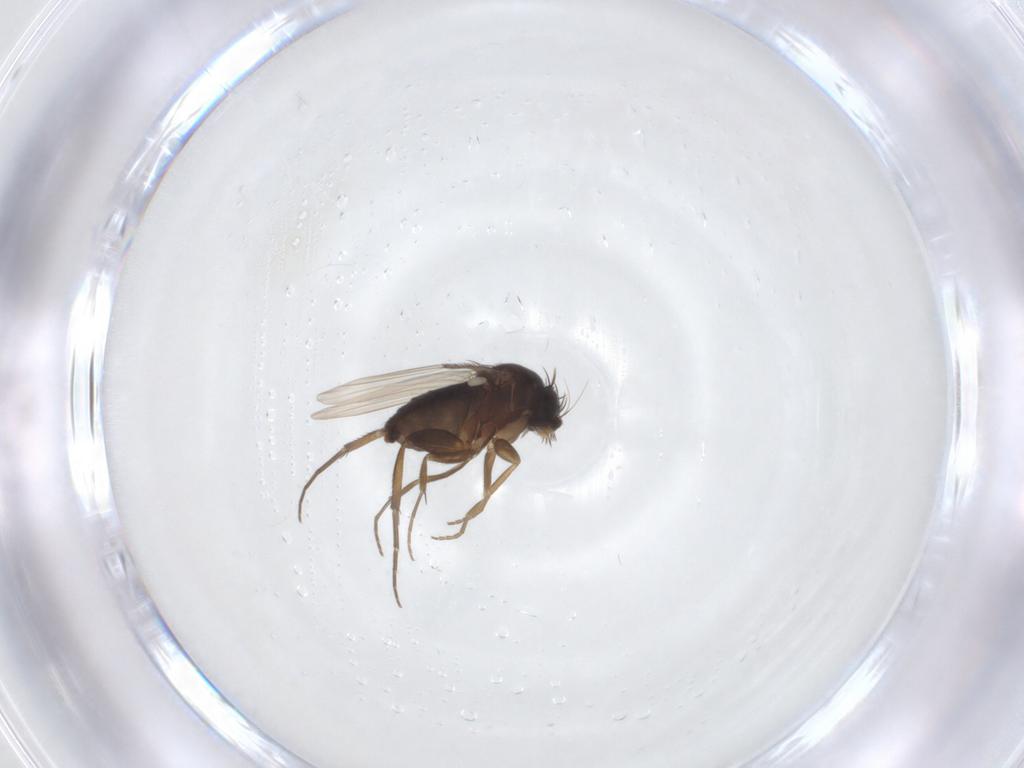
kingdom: Animalia
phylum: Arthropoda
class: Insecta
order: Diptera
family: Phoridae
